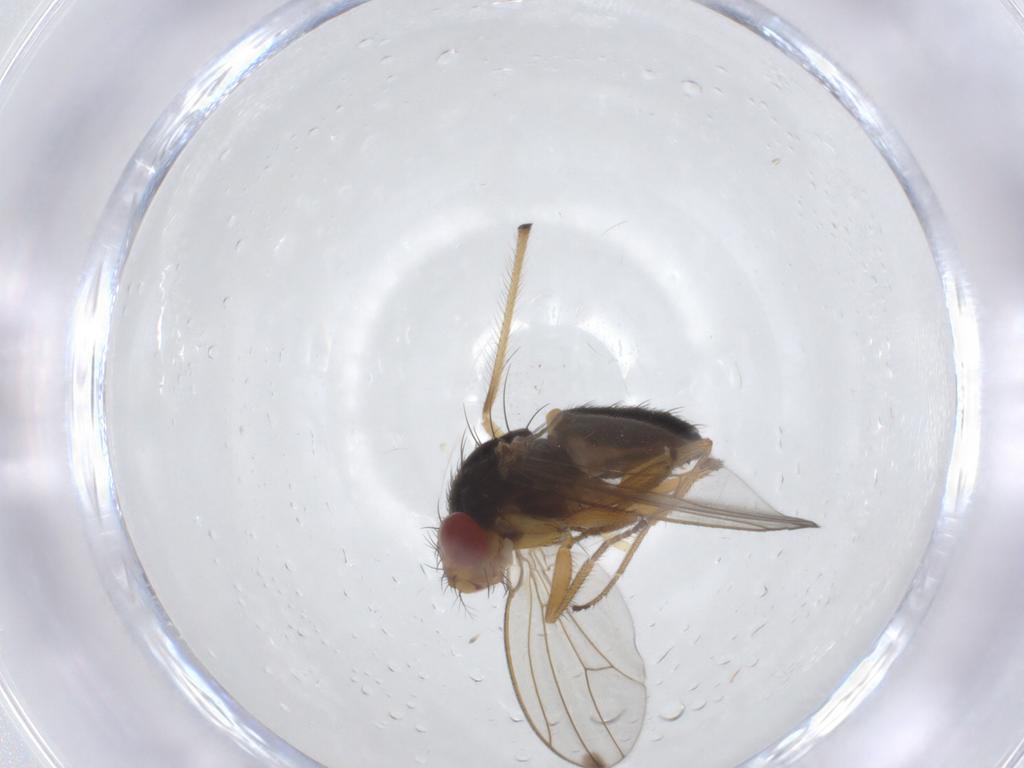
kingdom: Animalia
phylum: Arthropoda
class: Insecta
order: Diptera
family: Drosophilidae
